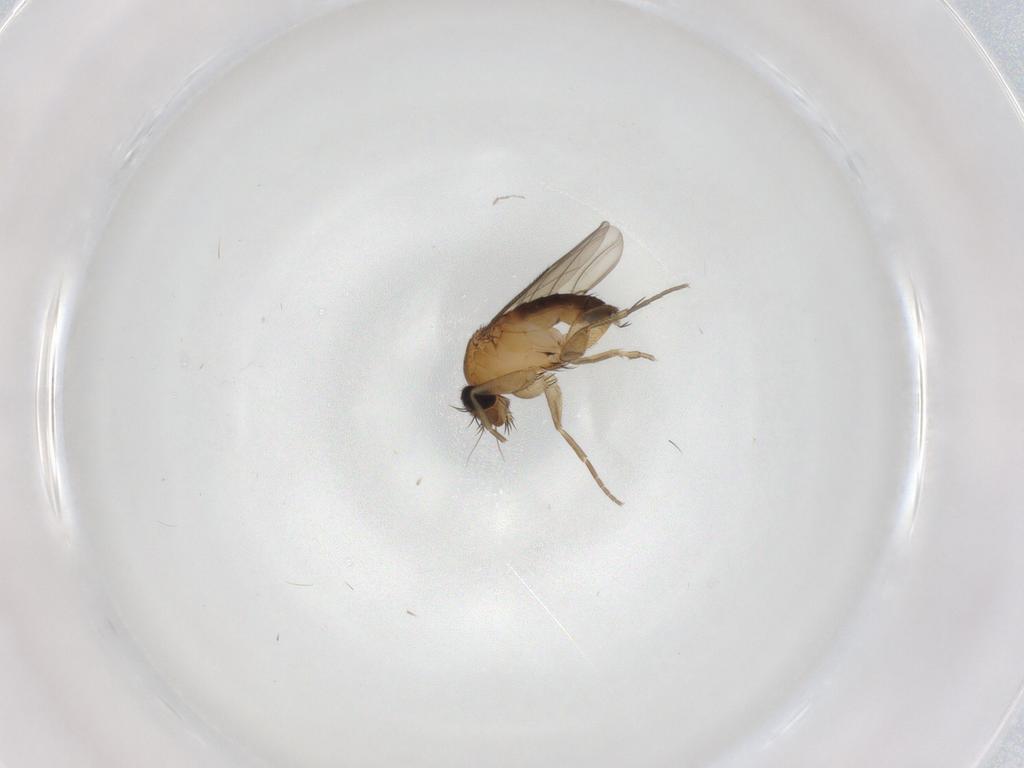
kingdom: Animalia
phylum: Arthropoda
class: Insecta
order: Diptera
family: Phoridae
